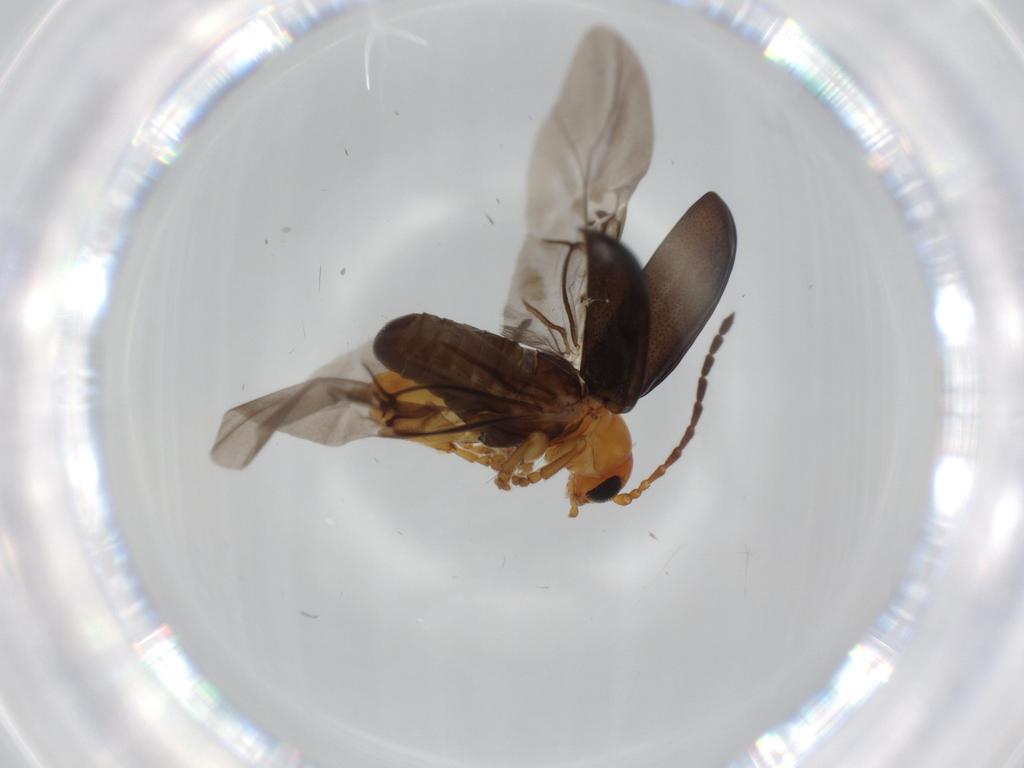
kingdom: Animalia
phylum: Arthropoda
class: Insecta
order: Coleoptera
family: Chrysomelidae
